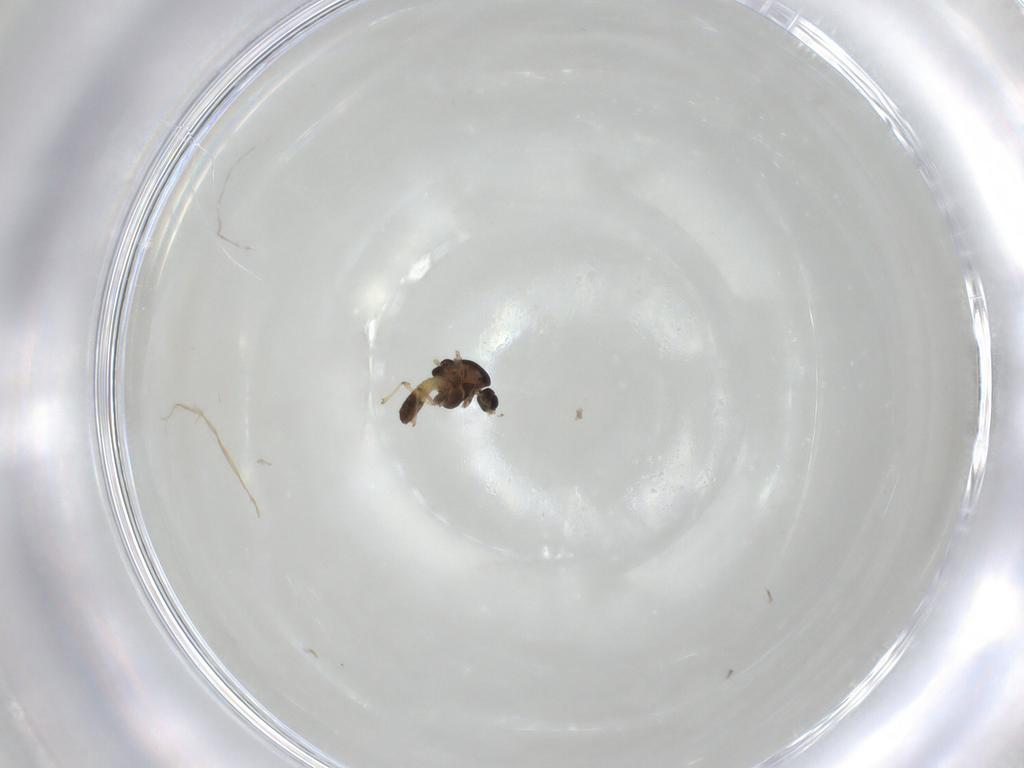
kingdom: Animalia
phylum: Arthropoda
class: Insecta
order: Diptera
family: Chironomidae
